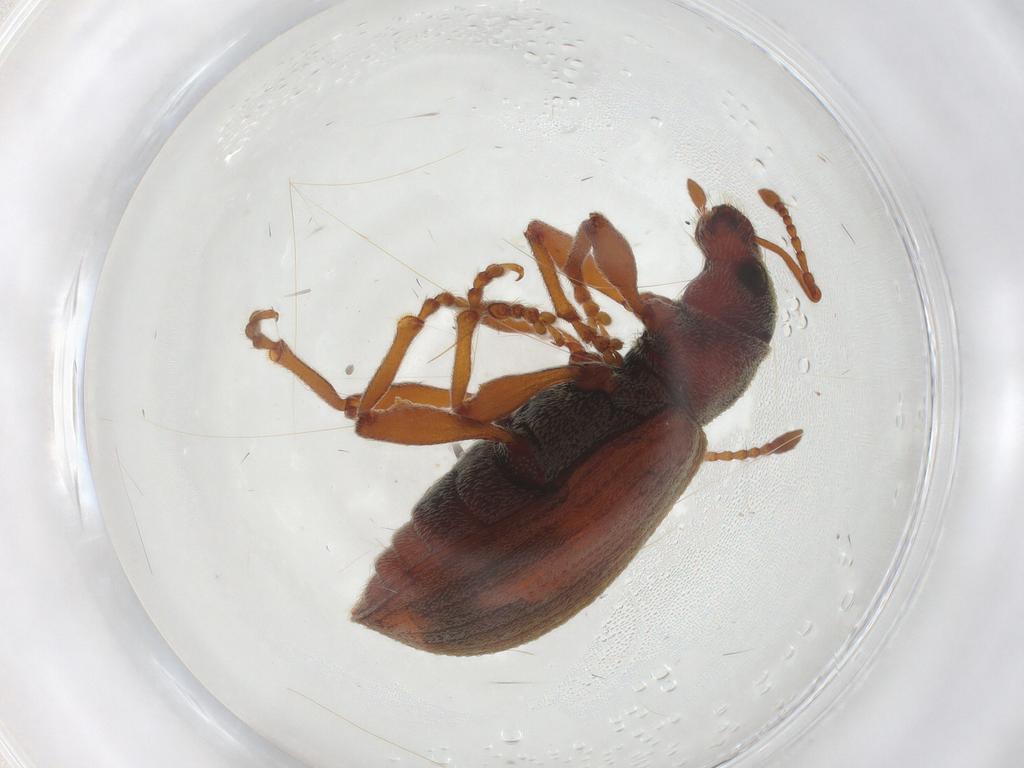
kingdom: Animalia
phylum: Arthropoda
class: Insecta
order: Coleoptera
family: Curculionidae
